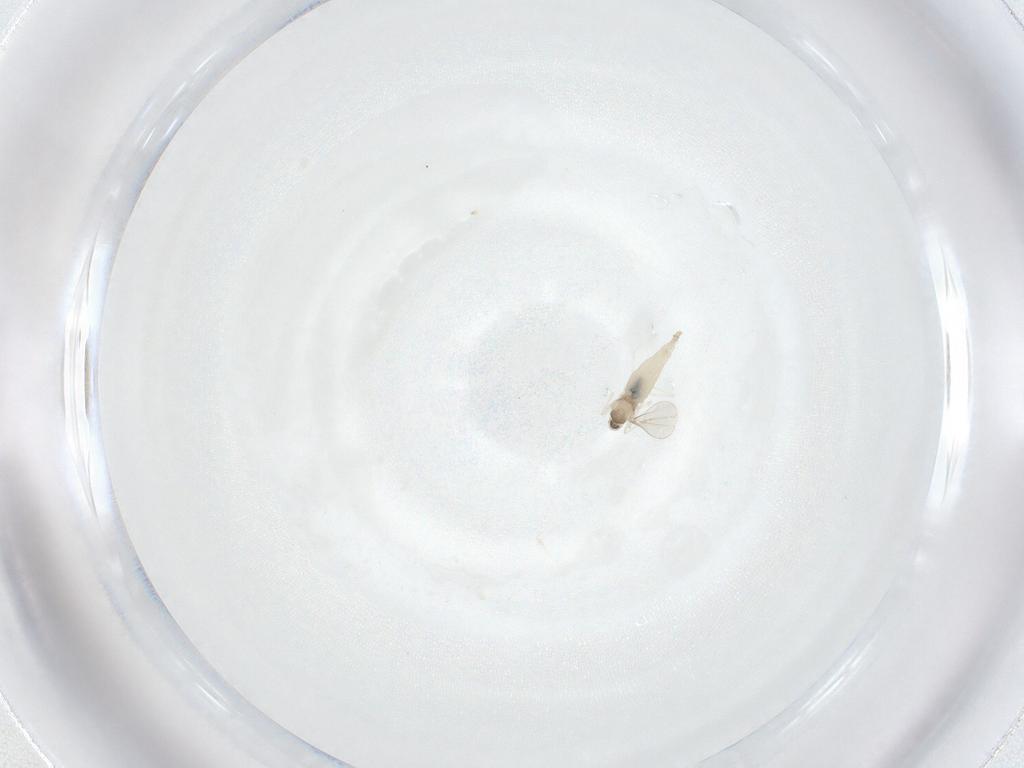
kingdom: Animalia
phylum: Arthropoda
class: Insecta
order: Diptera
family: Cecidomyiidae
